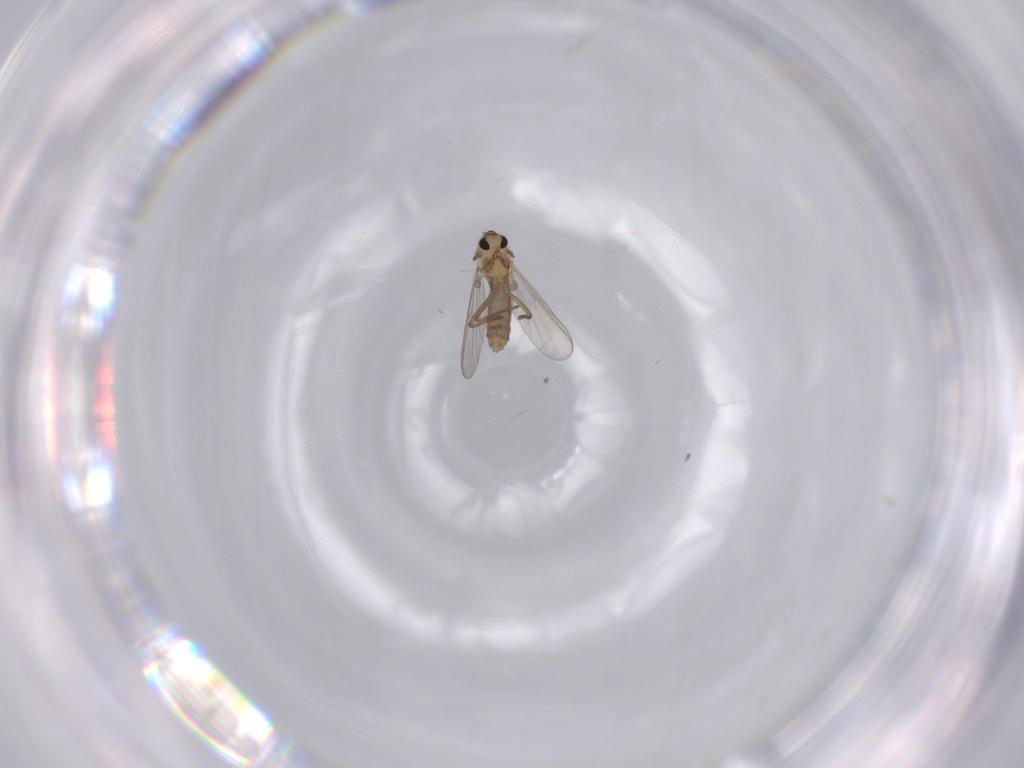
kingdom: Animalia
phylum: Arthropoda
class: Insecta
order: Diptera
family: Chironomidae
